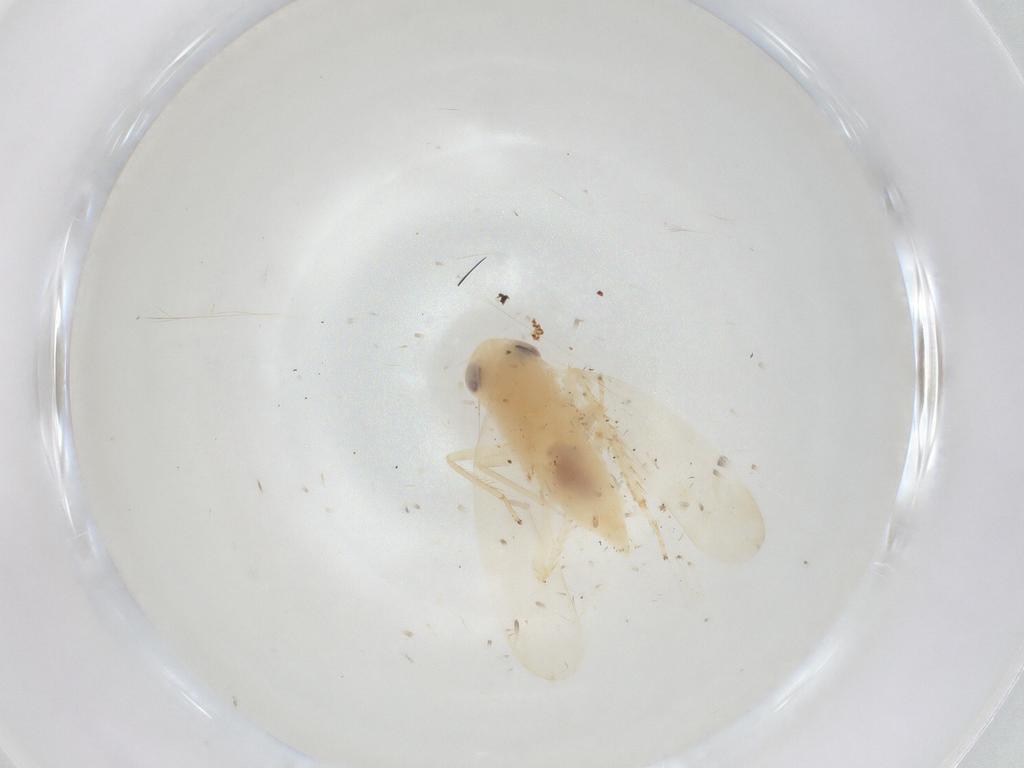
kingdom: Animalia
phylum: Arthropoda
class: Insecta
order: Hemiptera
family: Cicadellidae
